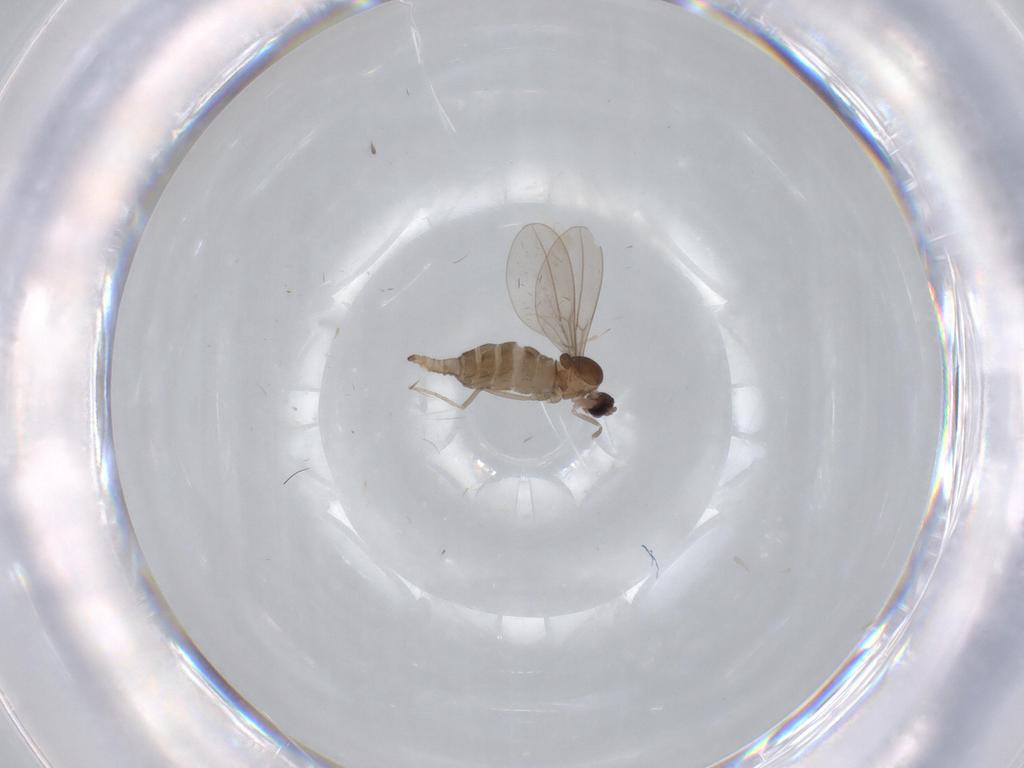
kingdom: Animalia
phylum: Arthropoda
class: Insecta
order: Diptera
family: Cecidomyiidae
